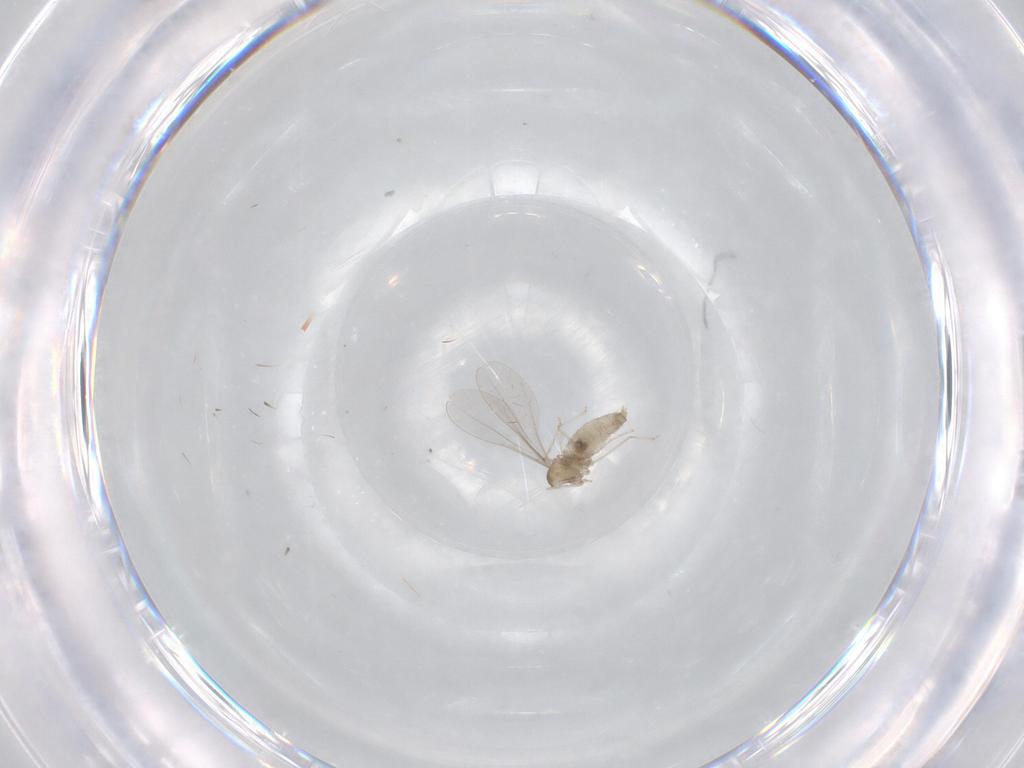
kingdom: Animalia
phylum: Arthropoda
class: Insecta
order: Diptera
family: Cecidomyiidae
